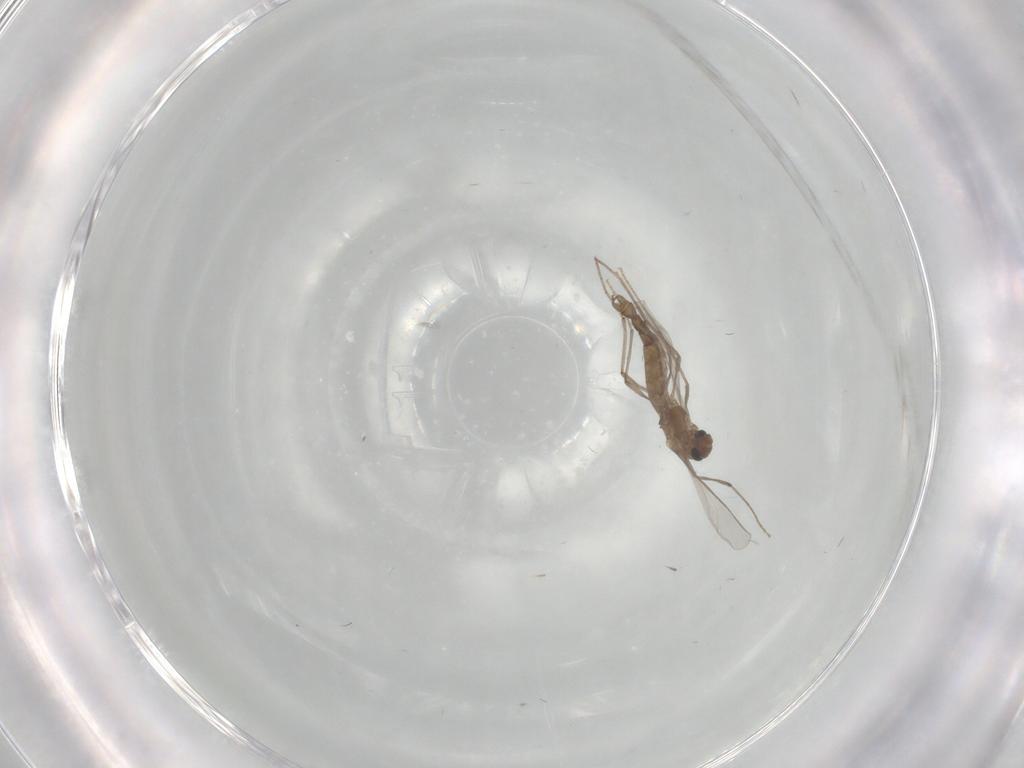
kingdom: Animalia
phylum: Arthropoda
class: Insecta
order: Diptera
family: Chironomidae
